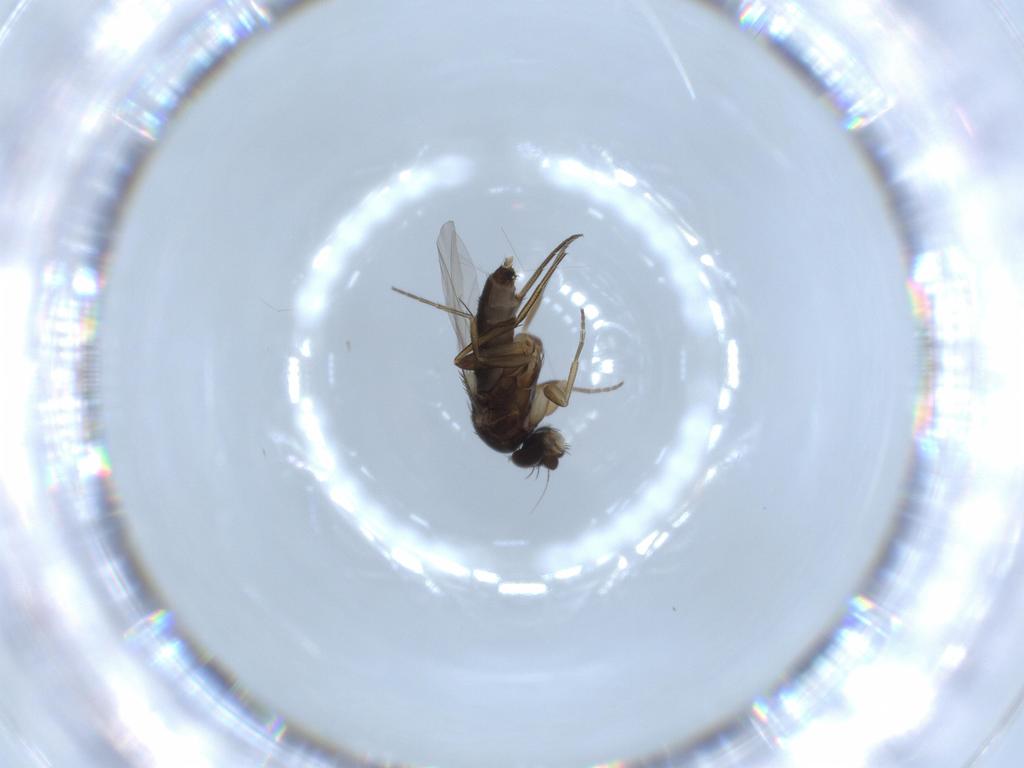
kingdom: Animalia
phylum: Arthropoda
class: Insecta
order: Diptera
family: Phoridae
